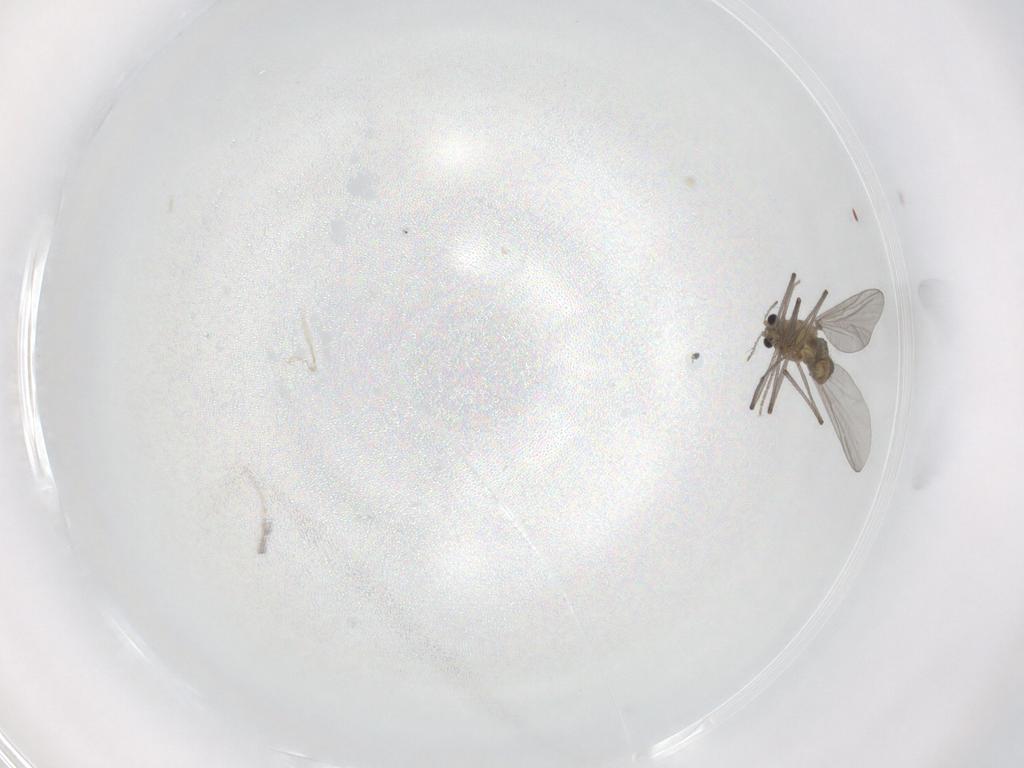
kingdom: Animalia
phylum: Arthropoda
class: Insecta
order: Diptera
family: Chironomidae
